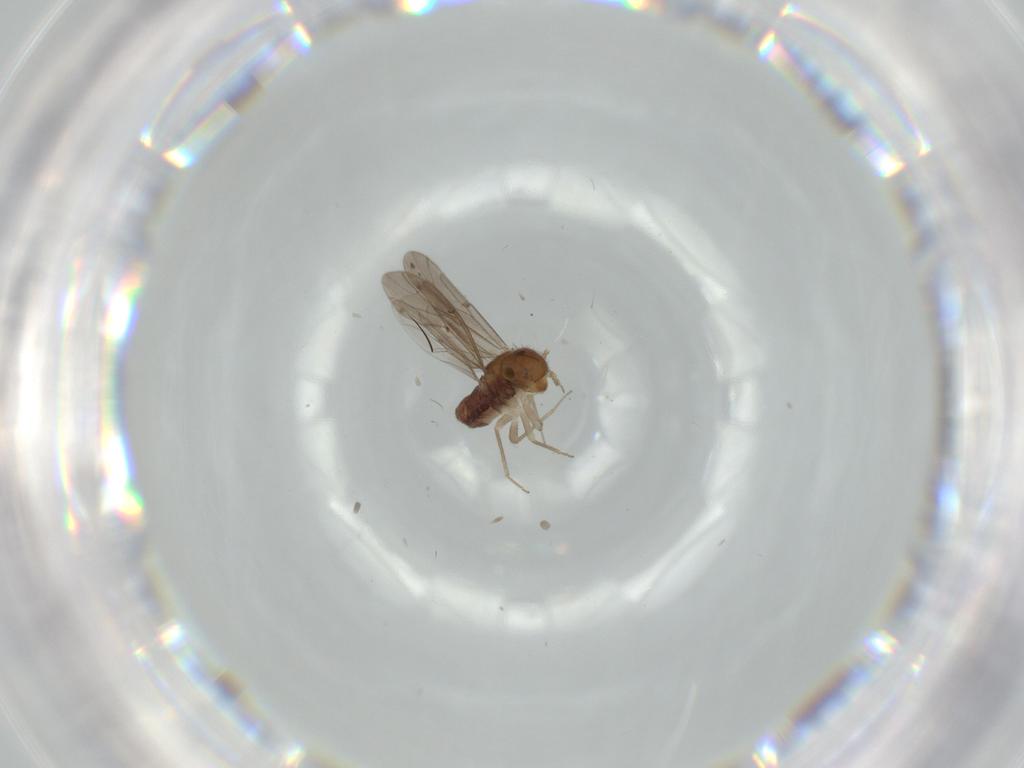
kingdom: Animalia
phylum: Arthropoda
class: Insecta
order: Psocodea
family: Ectopsocidae
